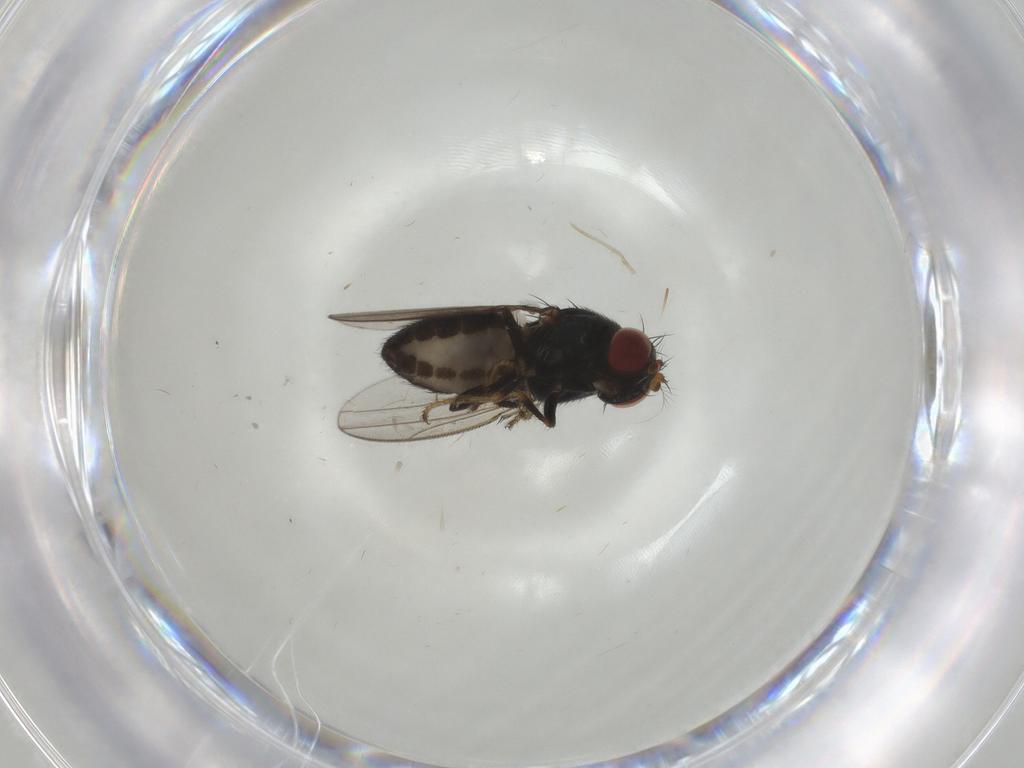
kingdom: Animalia
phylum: Arthropoda
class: Insecta
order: Diptera
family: Ephydridae
